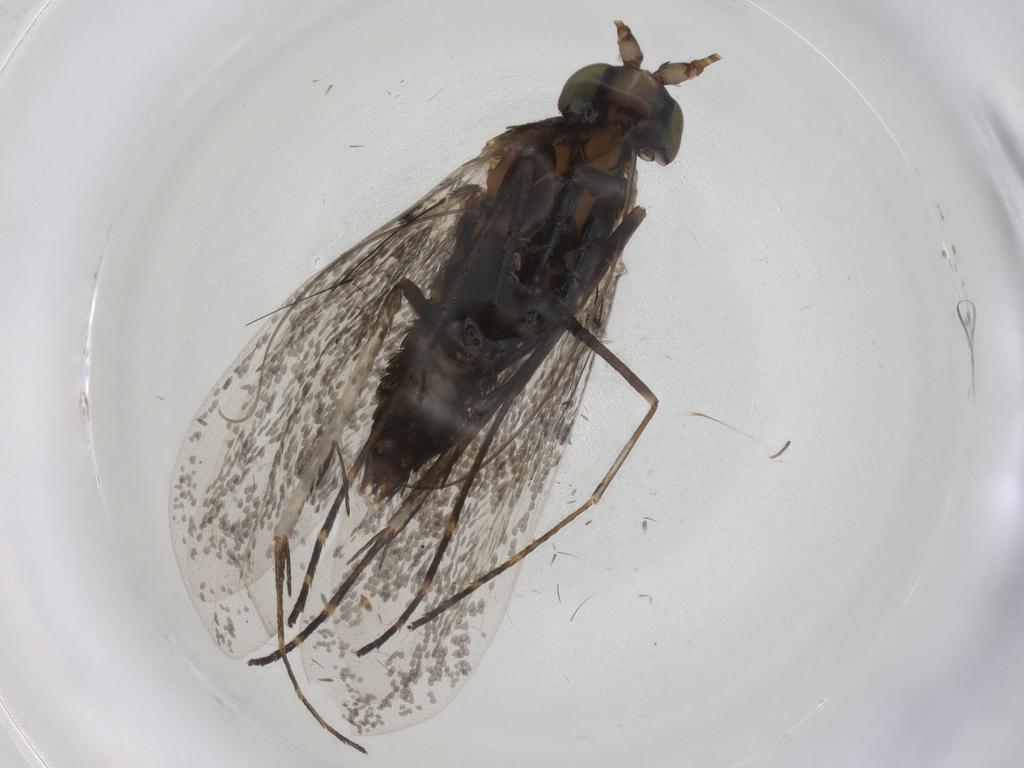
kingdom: Animalia
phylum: Arthropoda
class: Insecta
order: Lepidoptera
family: Adelidae
